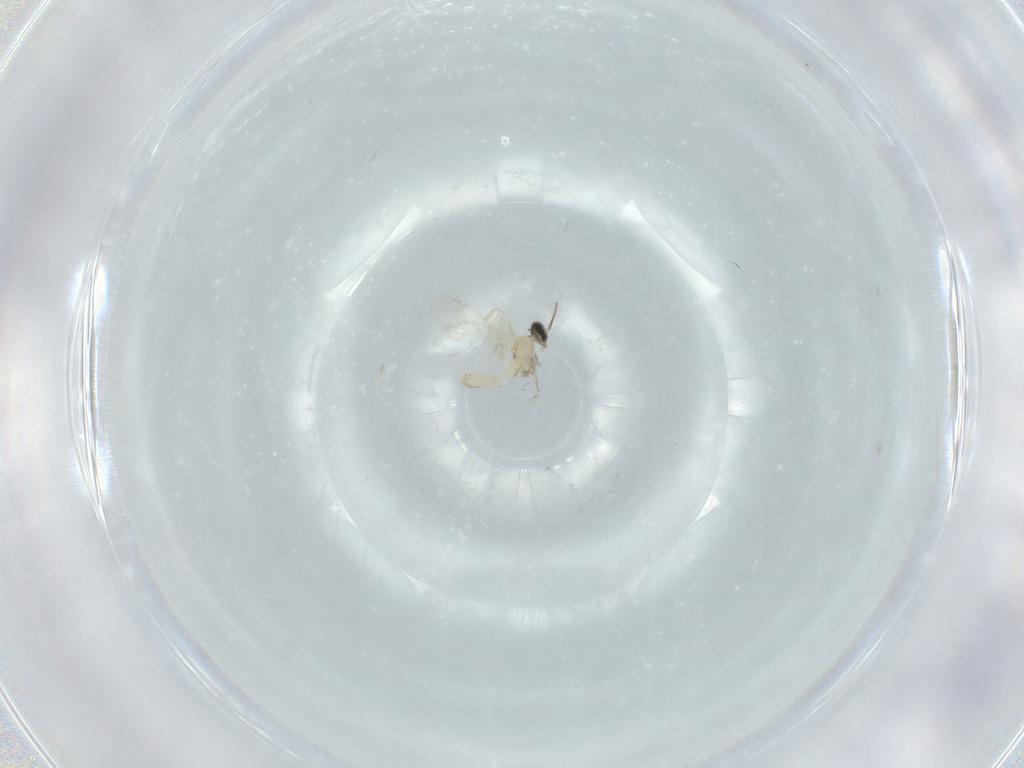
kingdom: Animalia
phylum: Arthropoda
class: Insecta
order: Diptera
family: Cecidomyiidae
